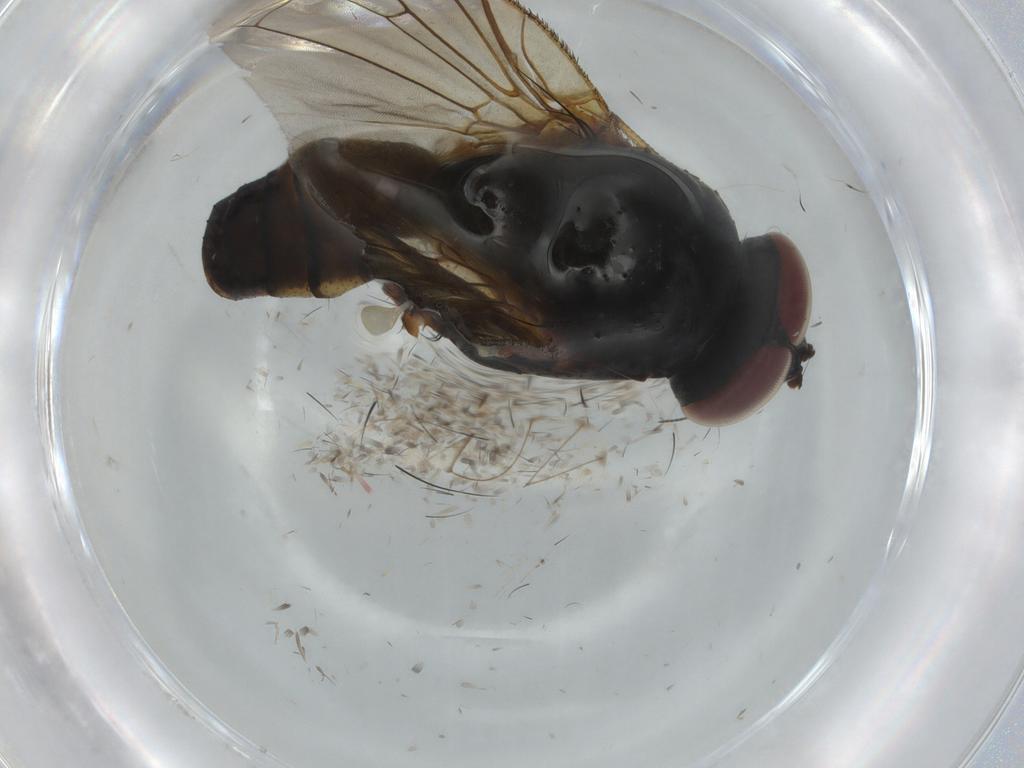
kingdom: Animalia
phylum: Arthropoda
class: Insecta
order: Diptera
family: Anthomyiidae
